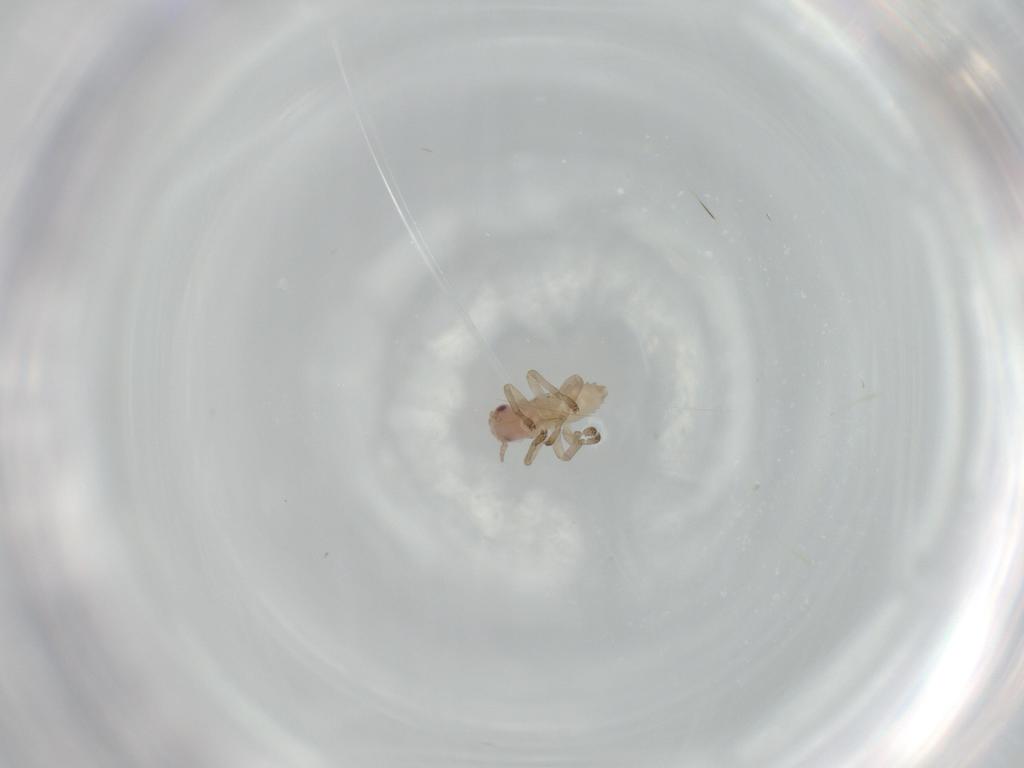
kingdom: Animalia
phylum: Arthropoda
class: Insecta
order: Hemiptera
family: Cicadellidae
